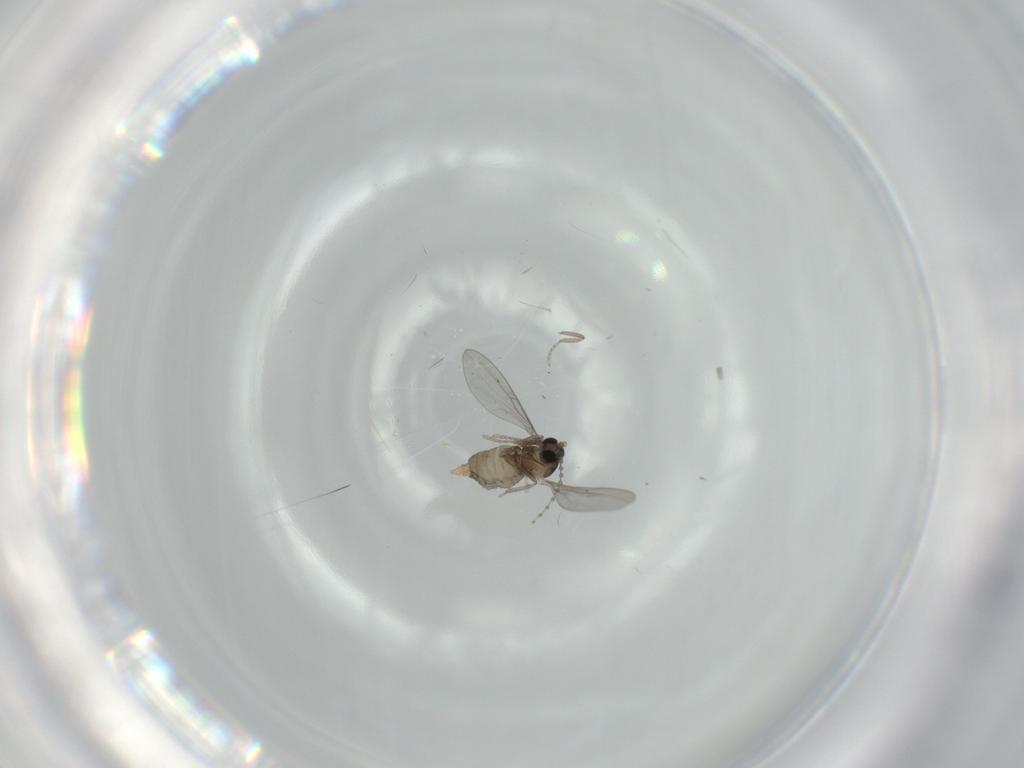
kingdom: Animalia
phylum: Arthropoda
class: Insecta
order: Diptera
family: Cecidomyiidae
